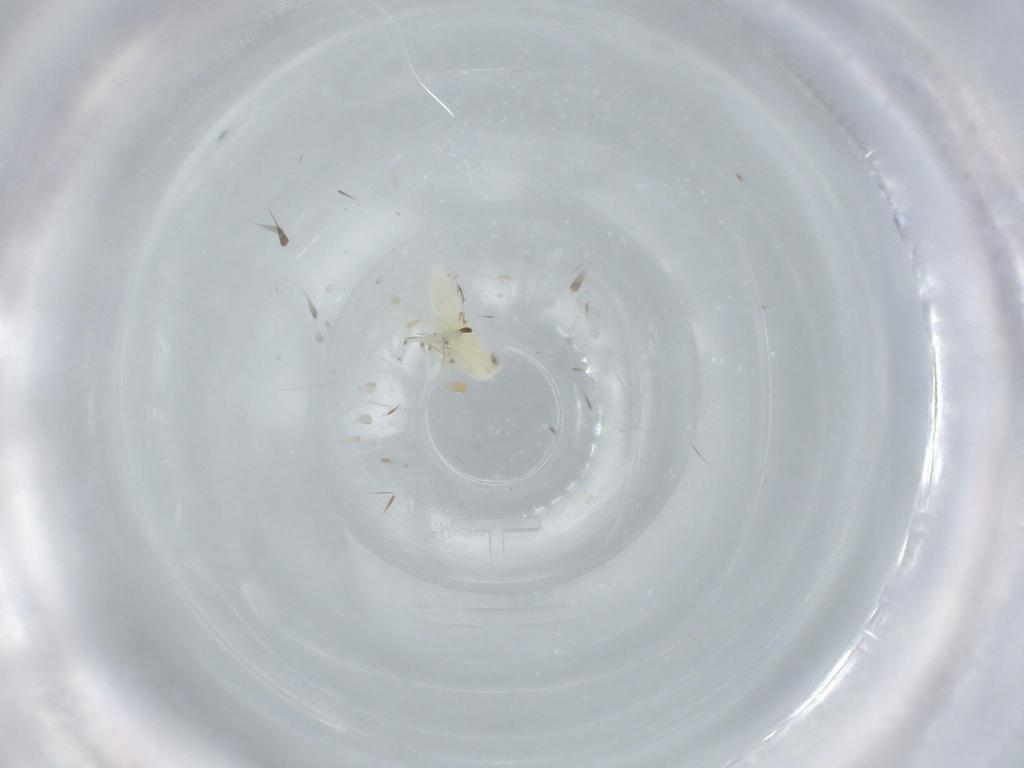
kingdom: Animalia
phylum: Arthropoda
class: Insecta
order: Hemiptera
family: Cicadellidae
